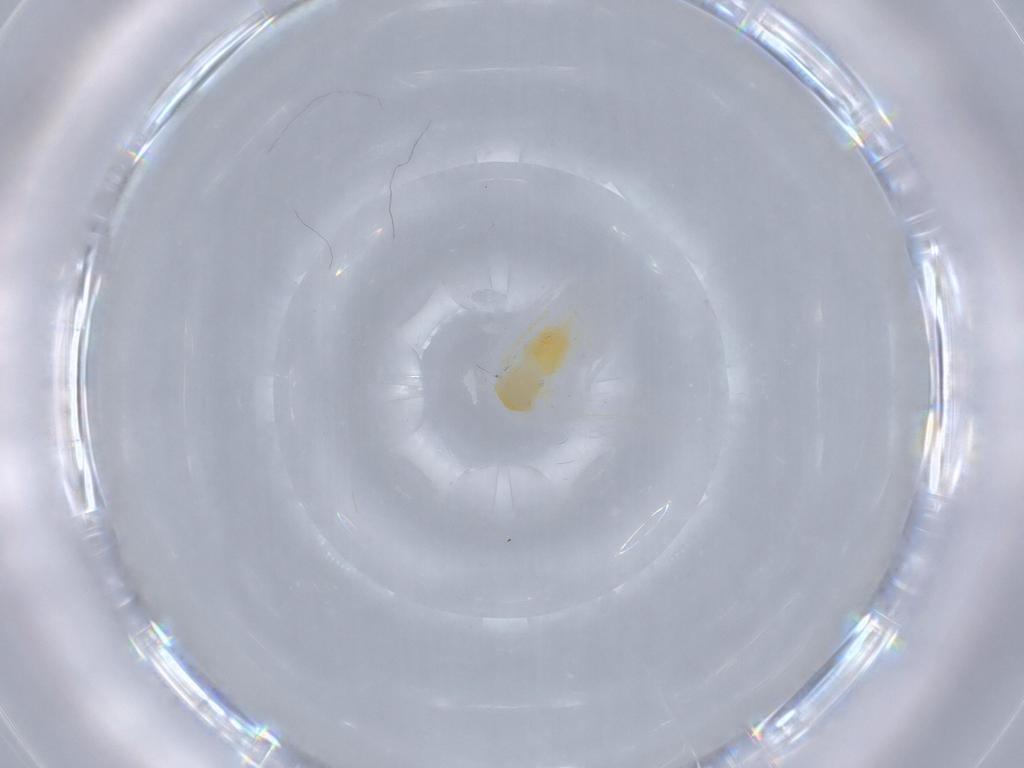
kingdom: Animalia
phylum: Arthropoda
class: Insecta
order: Hemiptera
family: Aleyrodidae
